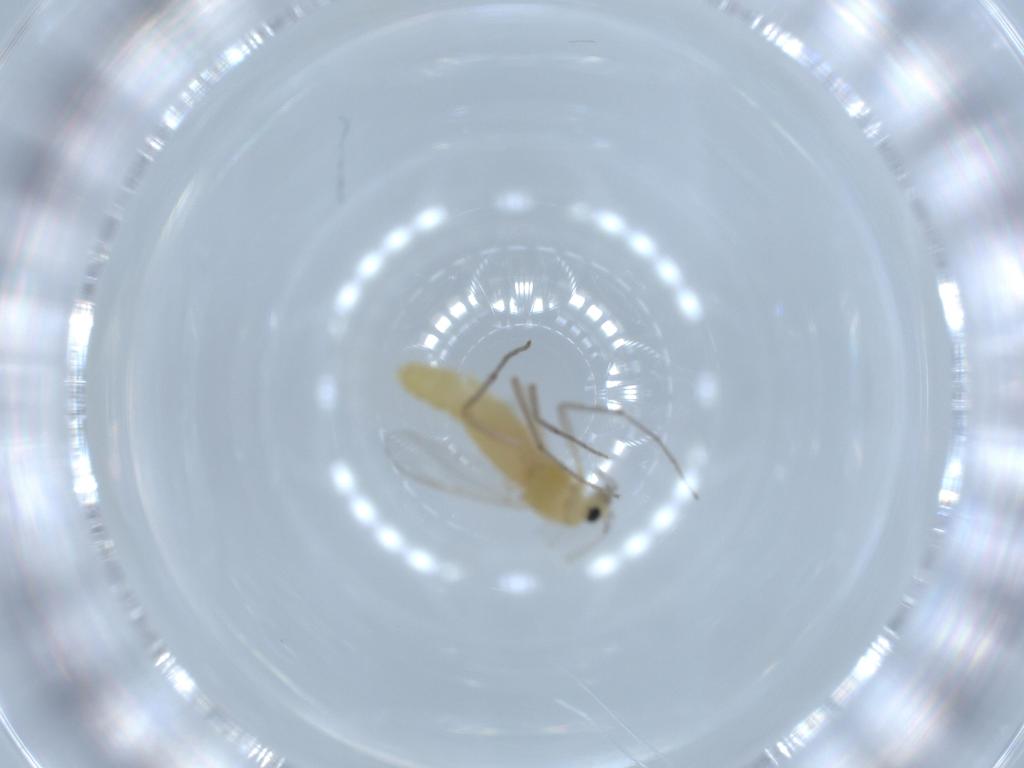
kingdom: Animalia
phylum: Arthropoda
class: Insecta
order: Diptera
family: Chironomidae
